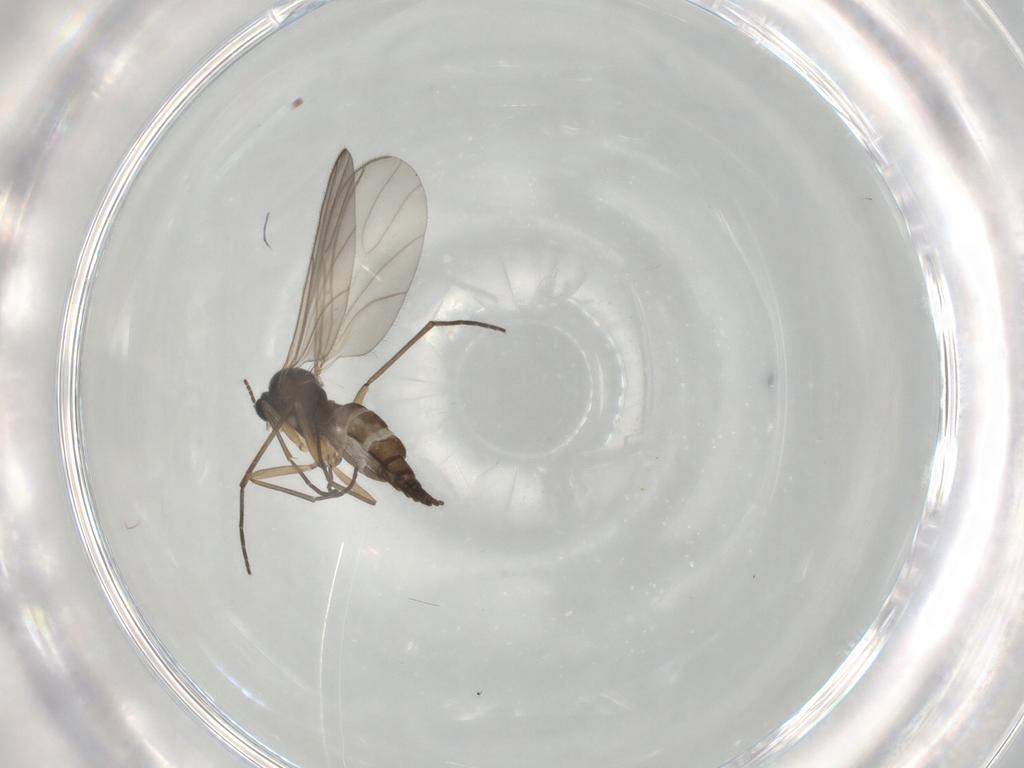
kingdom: Animalia
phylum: Arthropoda
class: Insecta
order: Diptera
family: Sciaridae
